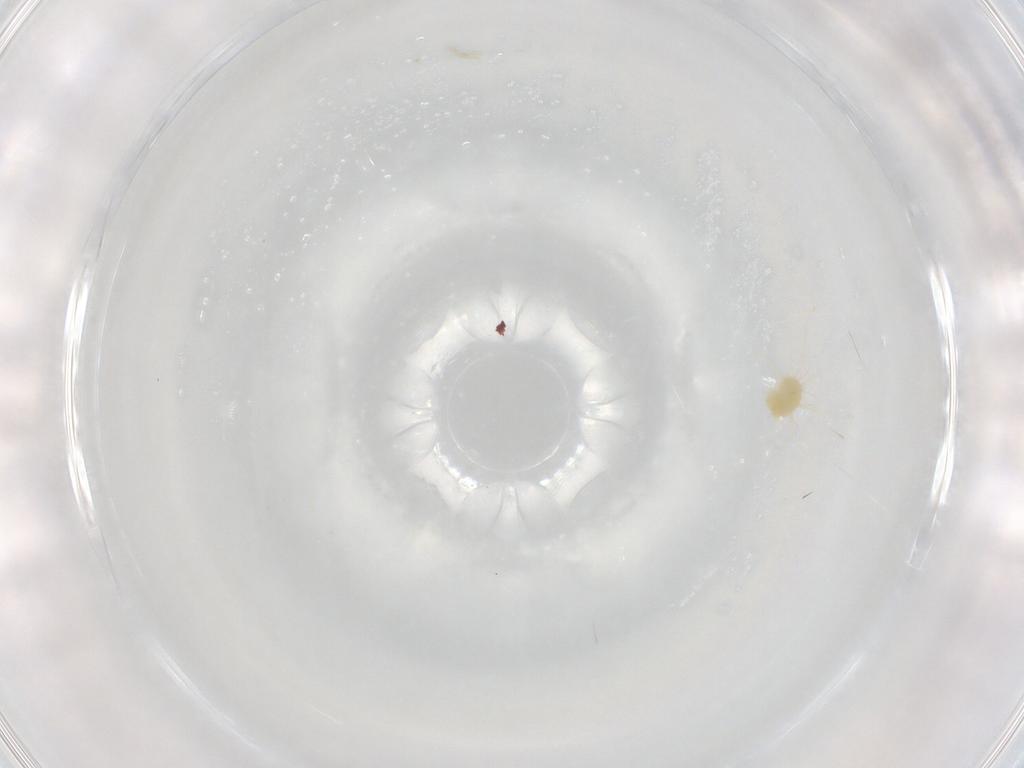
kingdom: Animalia
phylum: Arthropoda
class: Arachnida
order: Trombidiformes
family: Tetranychidae
